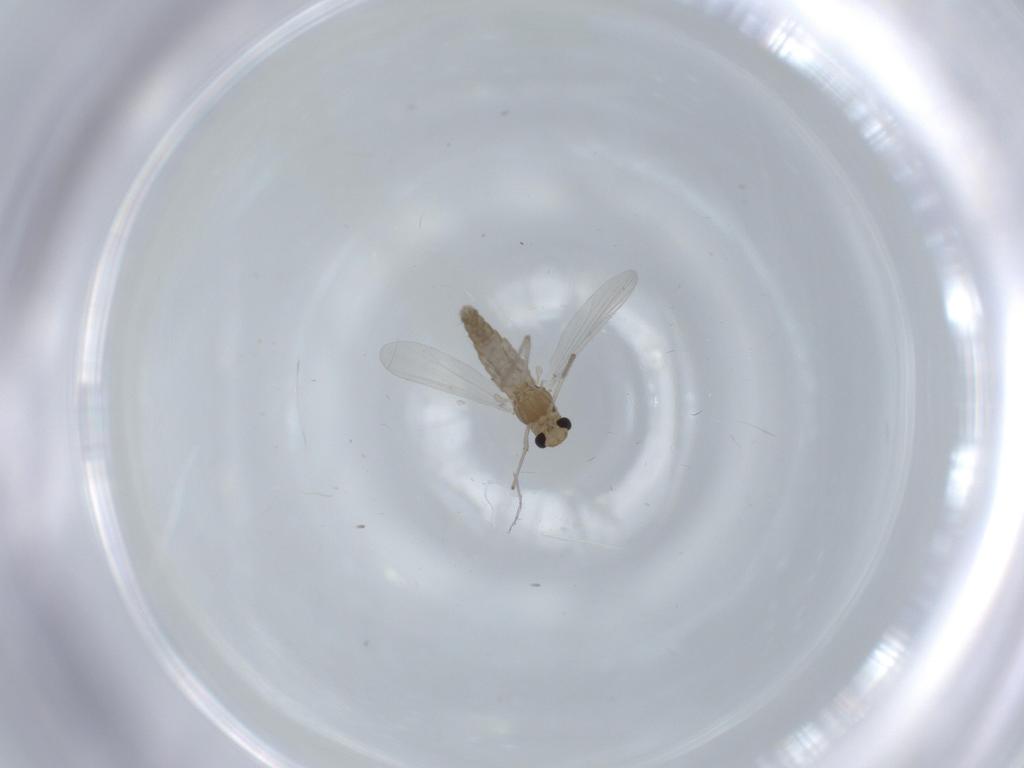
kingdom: Animalia
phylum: Arthropoda
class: Insecta
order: Diptera
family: Chironomidae
